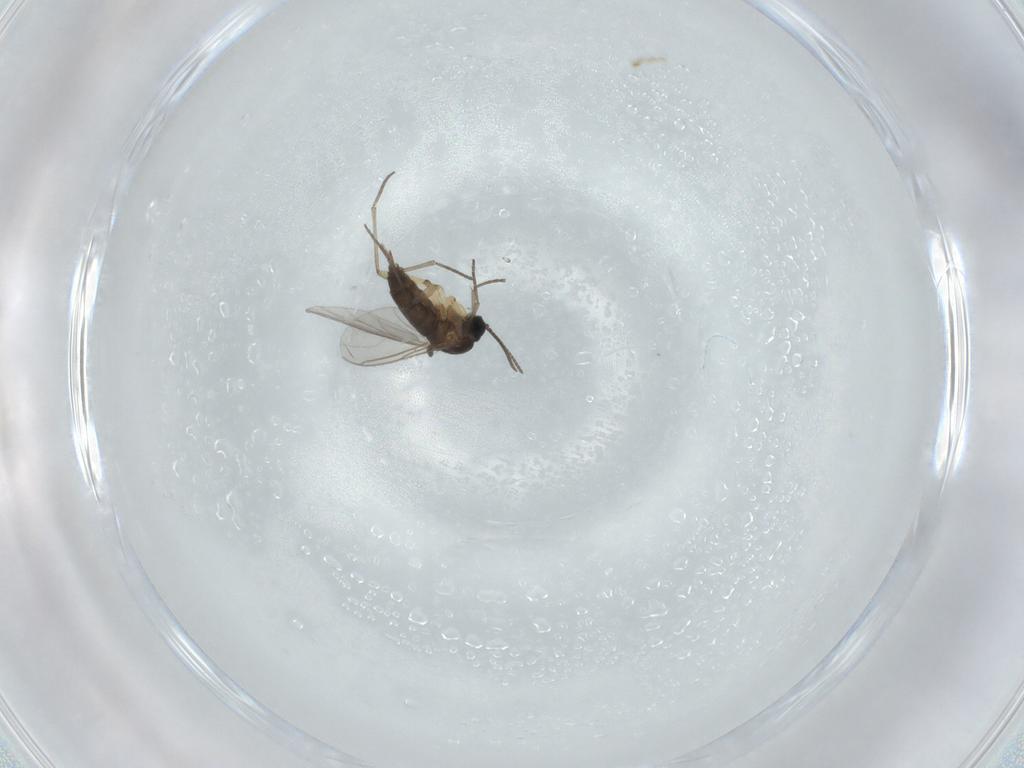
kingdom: Animalia
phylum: Arthropoda
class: Insecta
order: Diptera
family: Sciaridae
